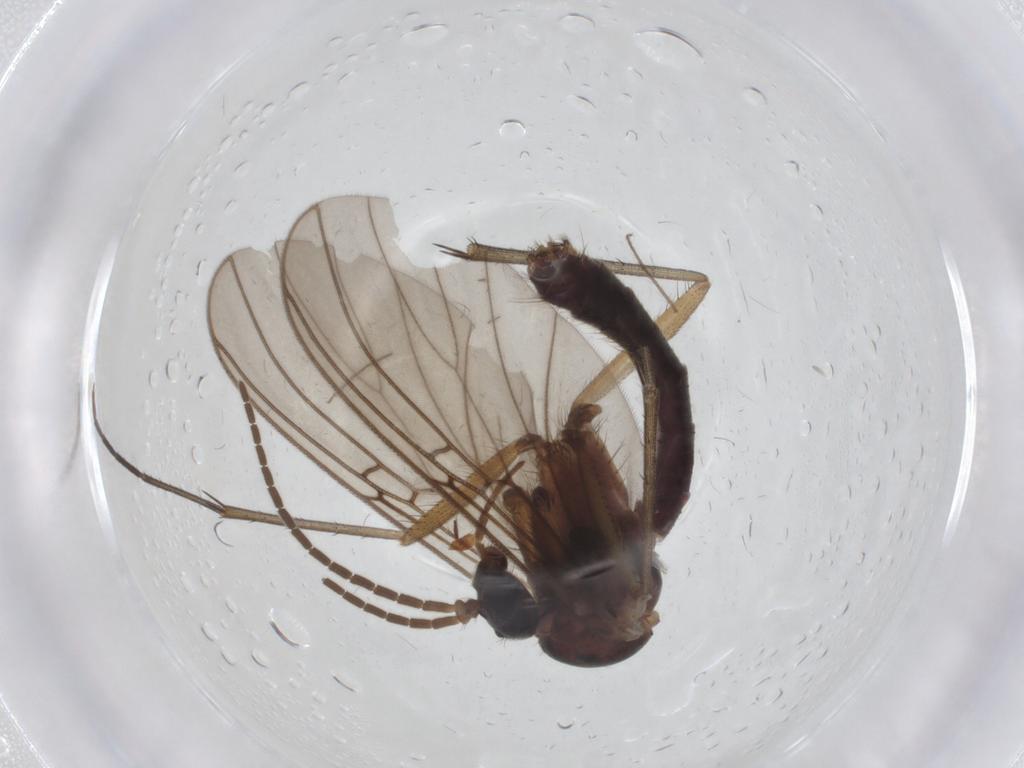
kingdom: Animalia
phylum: Arthropoda
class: Insecta
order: Diptera
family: Mycetophilidae
